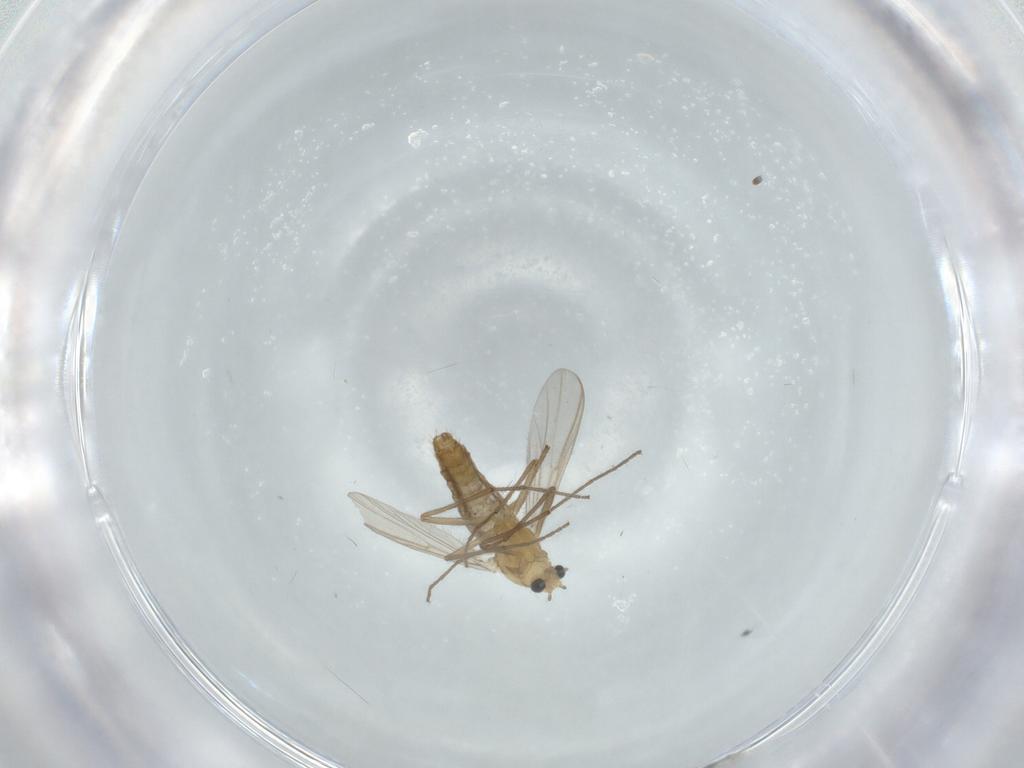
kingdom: Animalia
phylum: Arthropoda
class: Insecta
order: Diptera
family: Chironomidae
